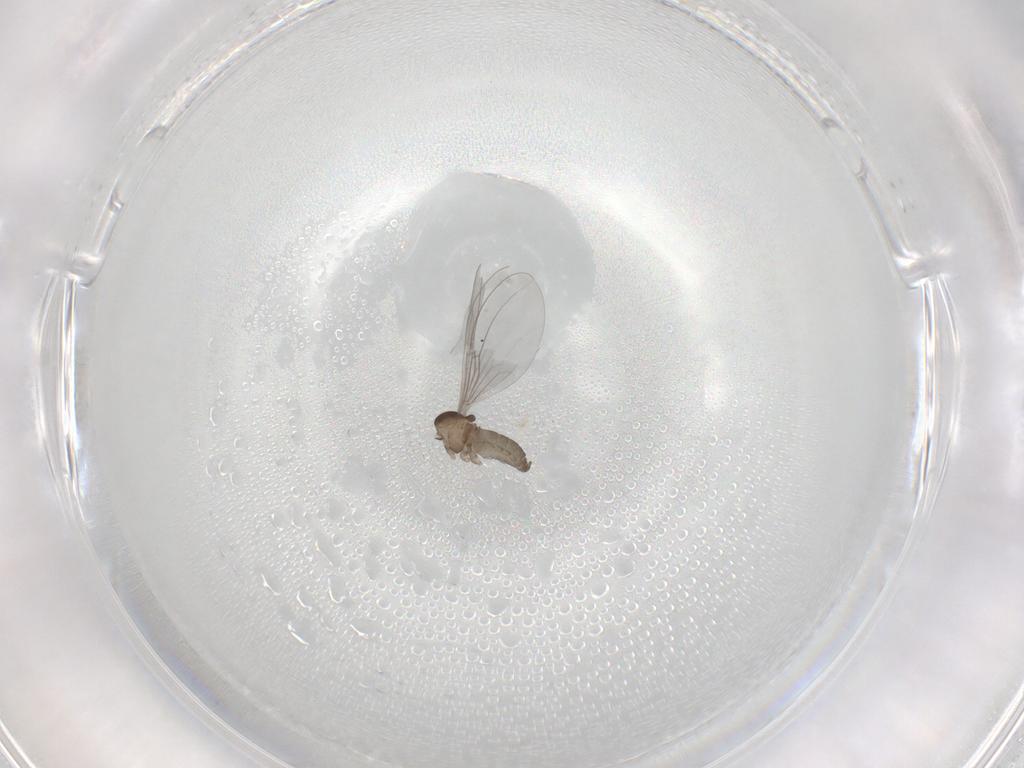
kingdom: Animalia
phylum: Arthropoda
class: Insecta
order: Diptera
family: Cecidomyiidae
